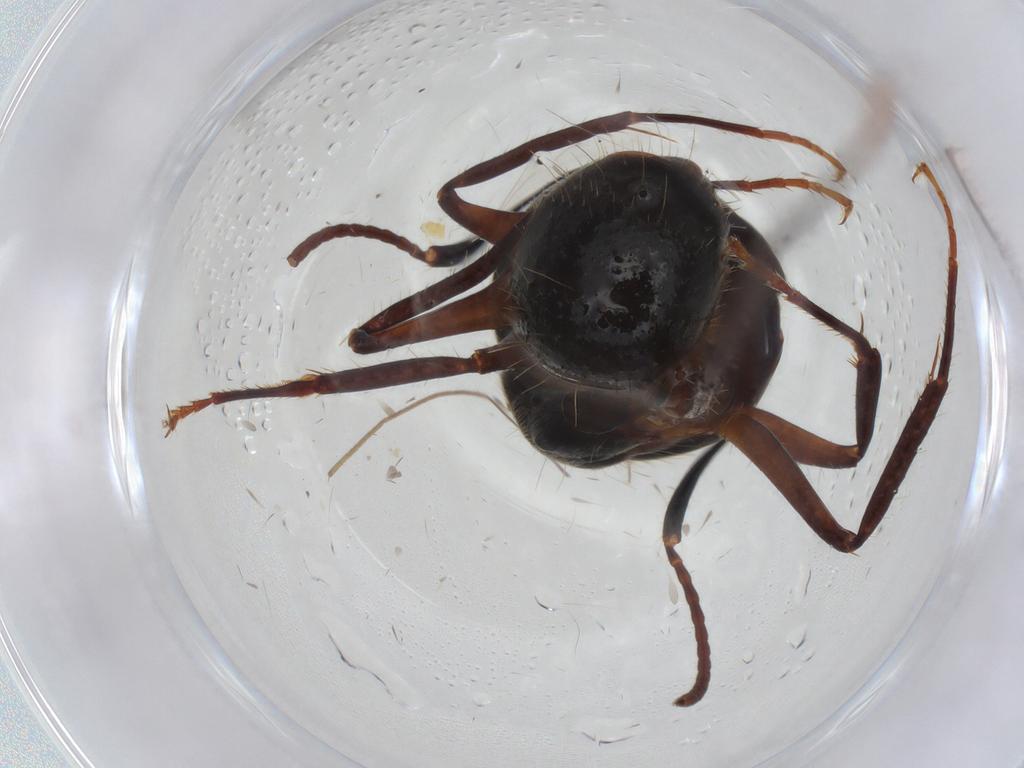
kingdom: Animalia
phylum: Arthropoda
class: Insecta
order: Hymenoptera
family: Formicidae
